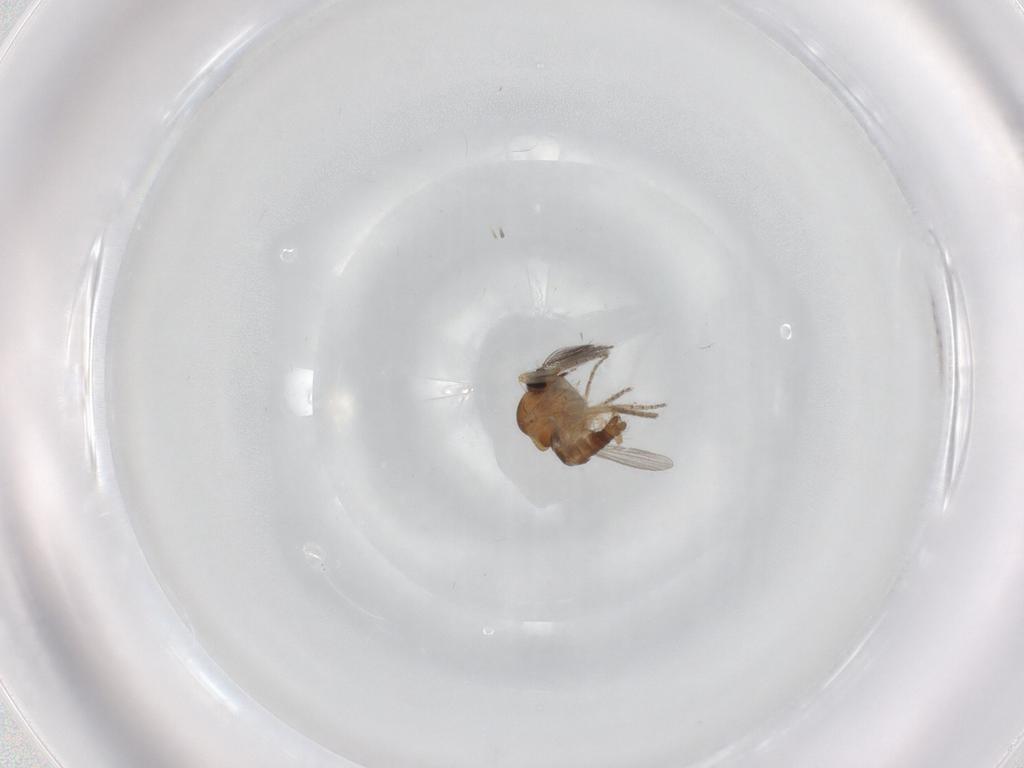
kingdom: Animalia
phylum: Arthropoda
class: Insecta
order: Diptera
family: Ceratopogonidae
